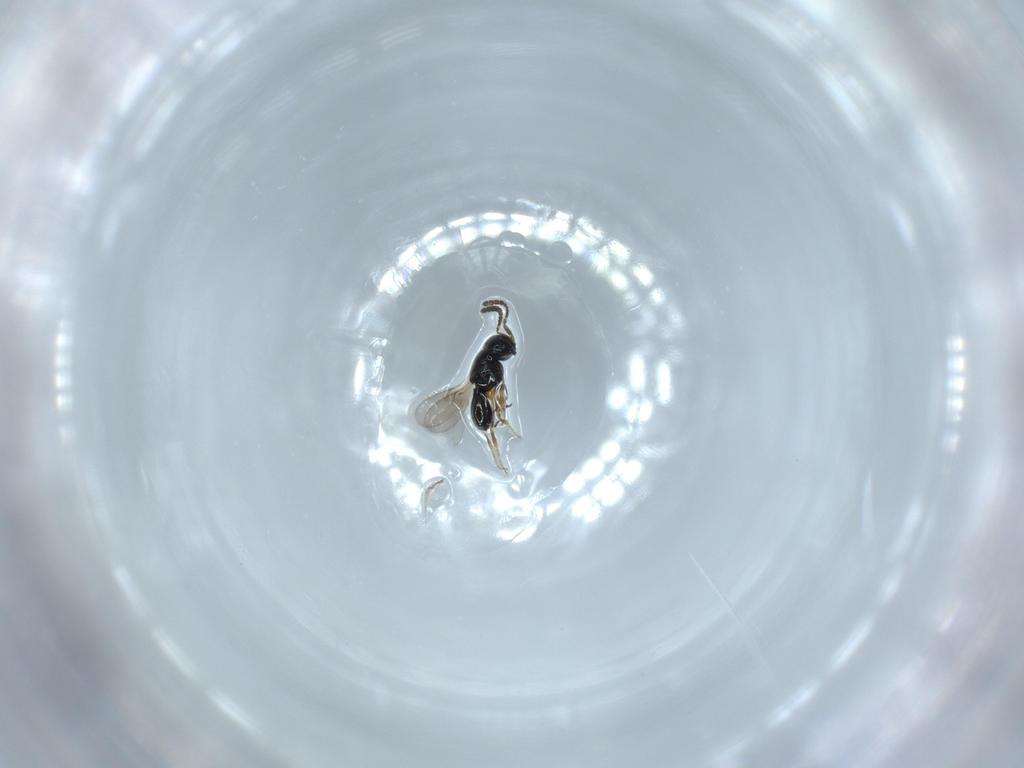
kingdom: Animalia
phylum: Arthropoda
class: Insecta
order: Hymenoptera
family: Scelionidae
